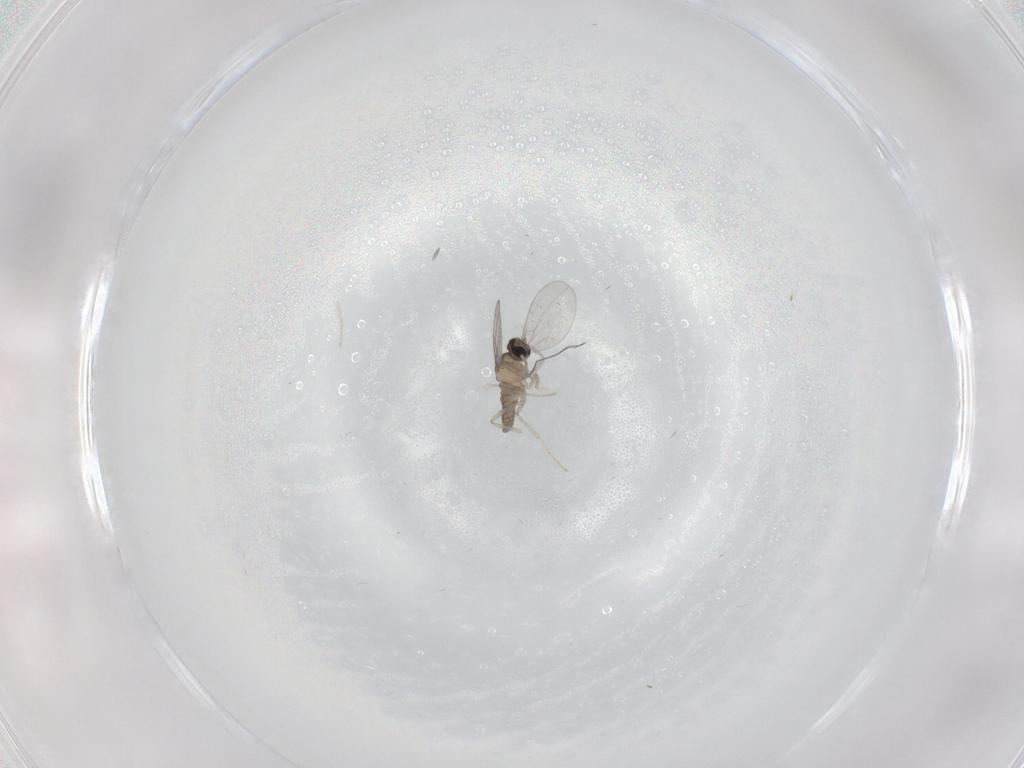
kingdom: Animalia
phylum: Arthropoda
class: Insecta
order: Diptera
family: Cecidomyiidae
